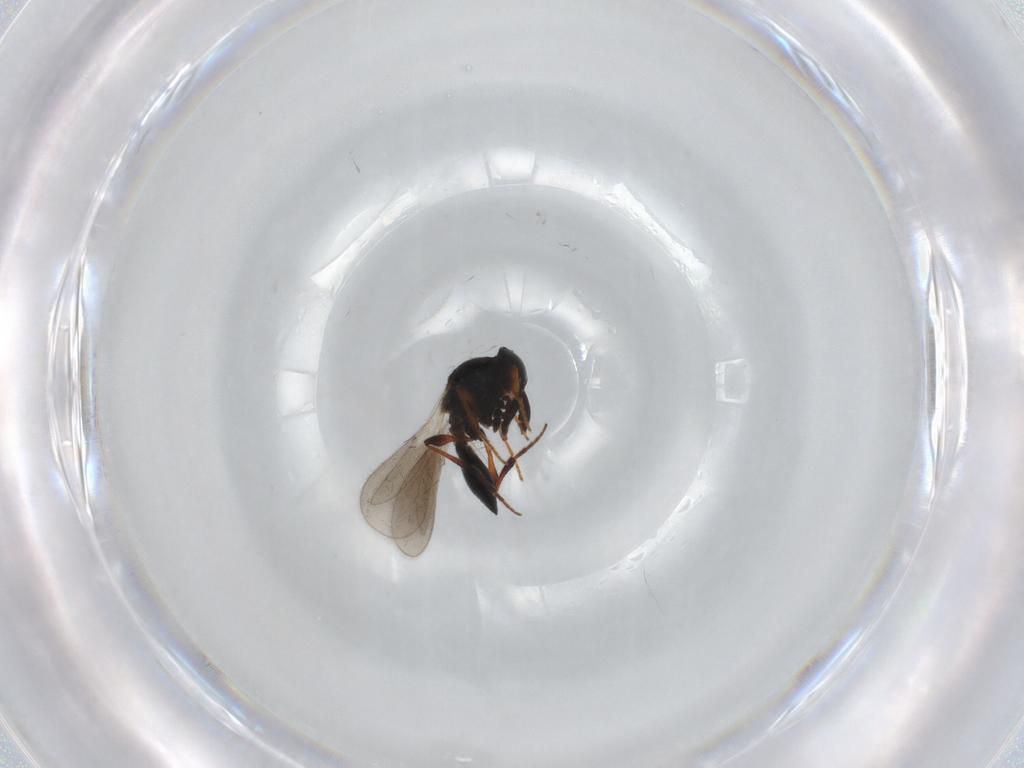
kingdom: Animalia
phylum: Arthropoda
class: Insecta
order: Hymenoptera
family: Platygastridae
